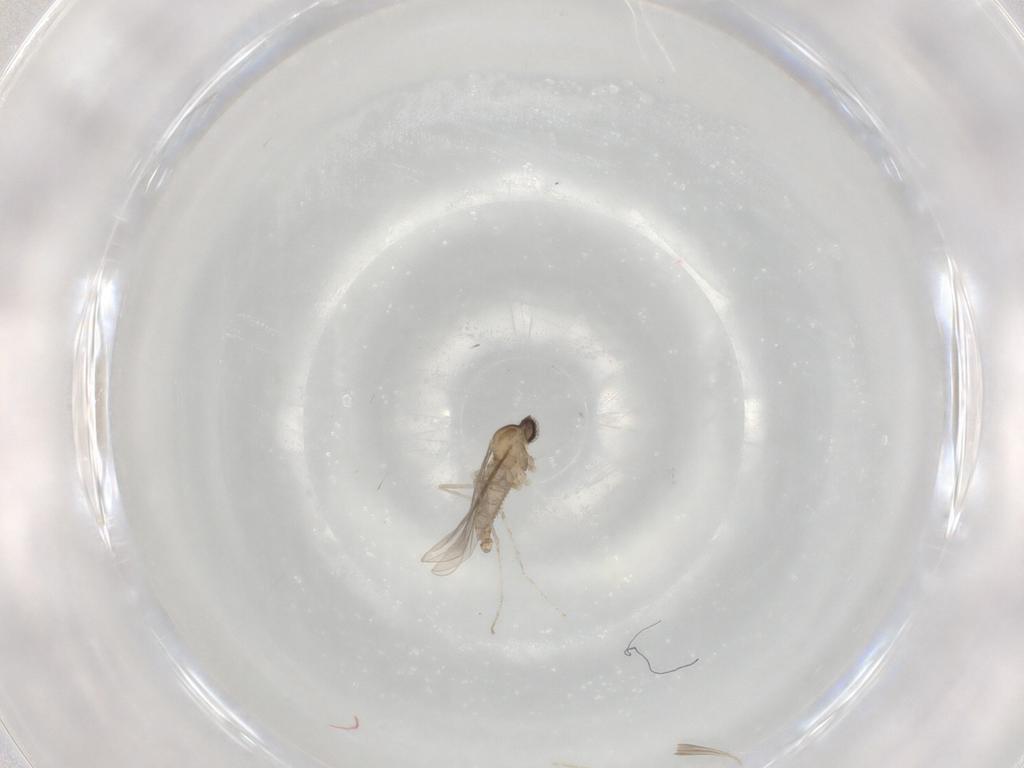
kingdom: Animalia
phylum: Arthropoda
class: Insecta
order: Diptera
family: Cecidomyiidae
